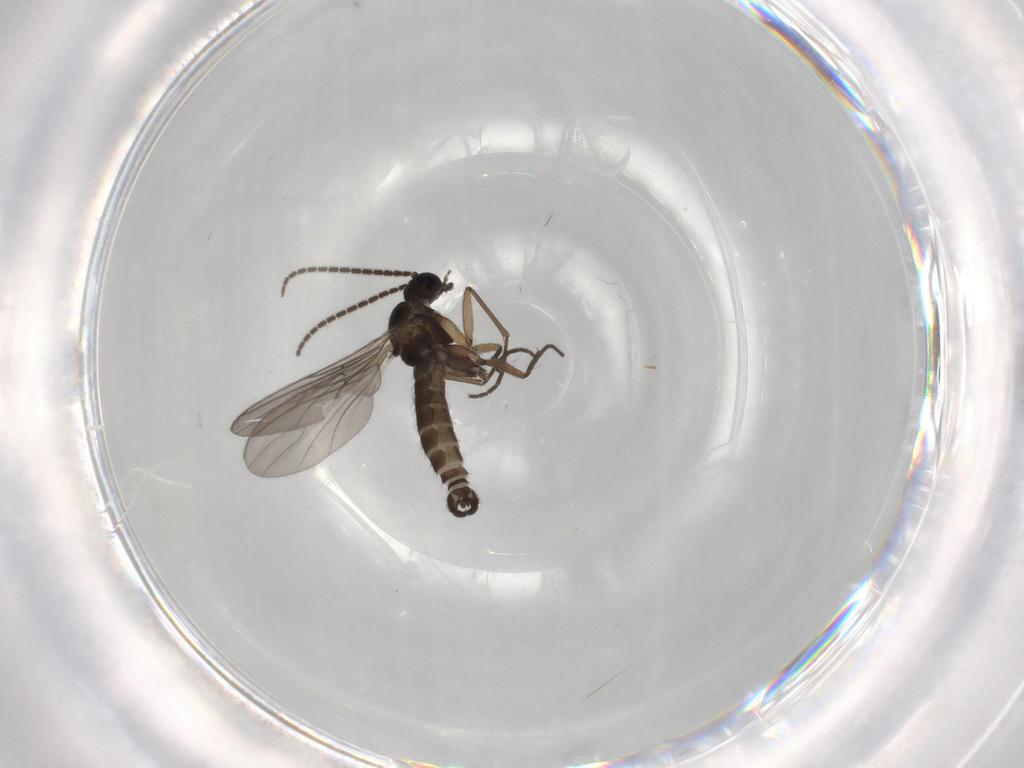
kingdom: Animalia
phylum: Arthropoda
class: Insecta
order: Diptera
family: Sciaridae
